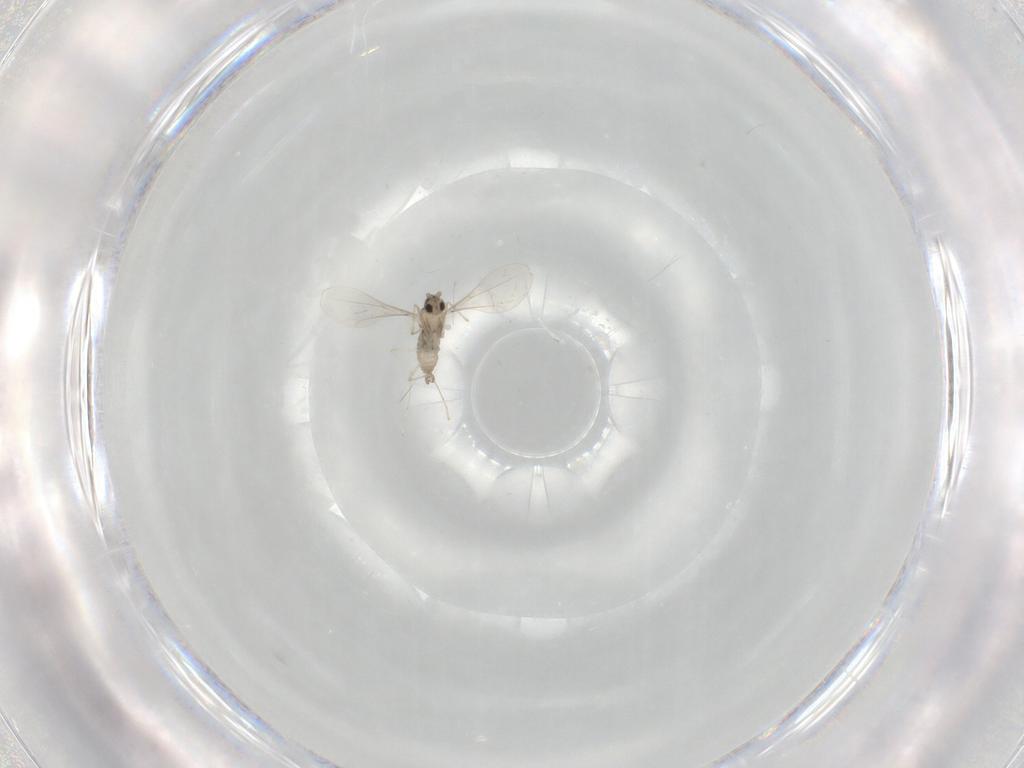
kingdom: Animalia
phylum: Arthropoda
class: Insecta
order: Diptera
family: Cecidomyiidae
